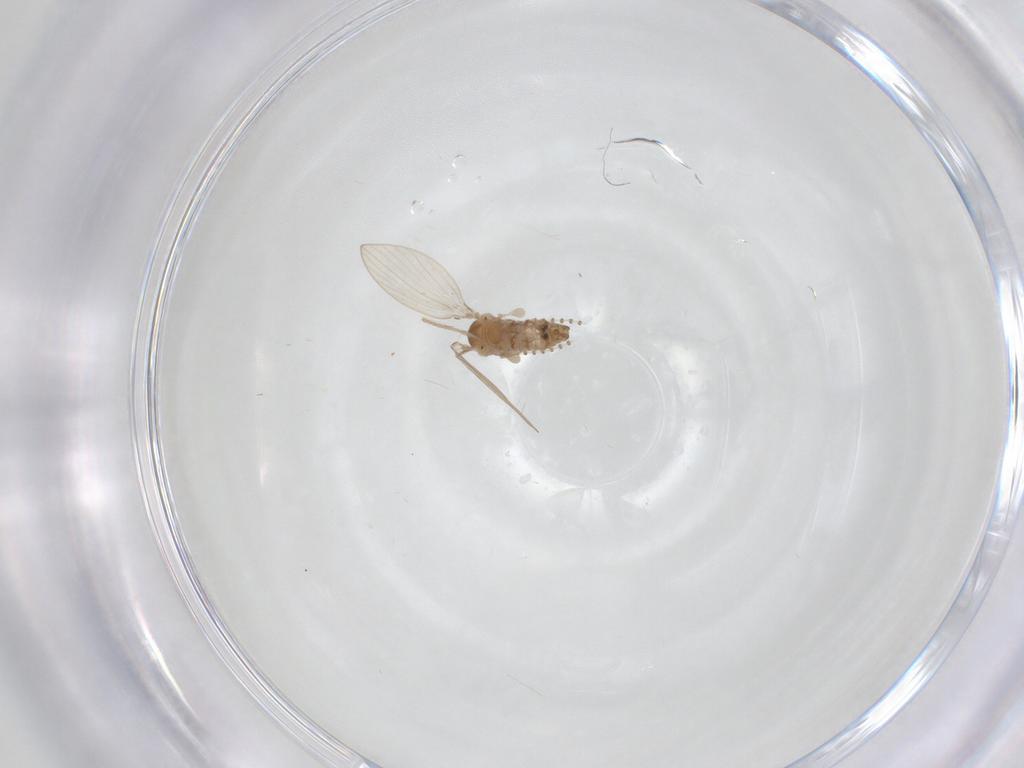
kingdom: Animalia
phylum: Arthropoda
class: Insecta
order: Diptera
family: Psychodidae
